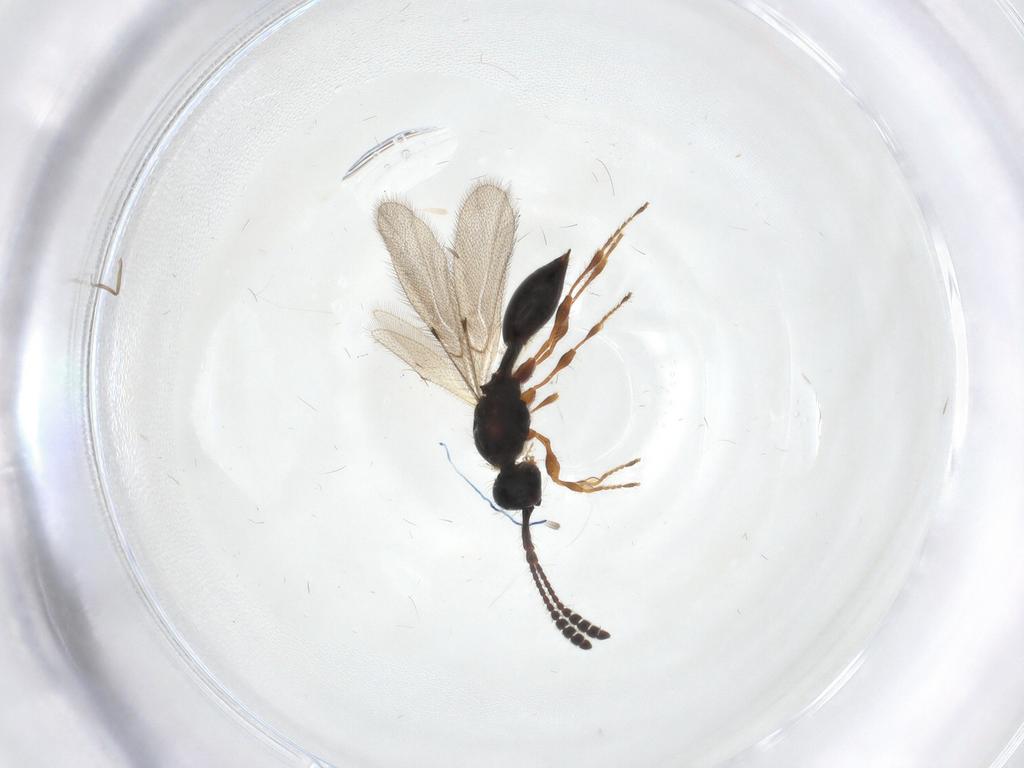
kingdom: Animalia
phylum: Arthropoda
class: Insecta
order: Hymenoptera
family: Diapriidae
